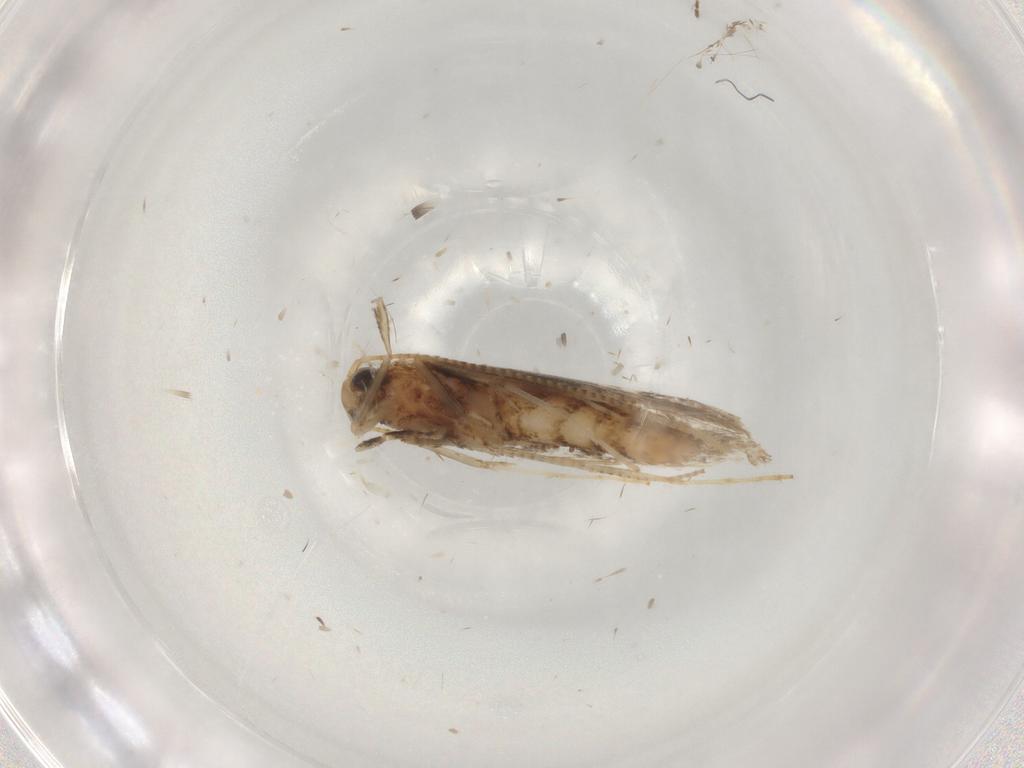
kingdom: Animalia
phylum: Arthropoda
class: Insecta
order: Lepidoptera
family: Gracillariidae
